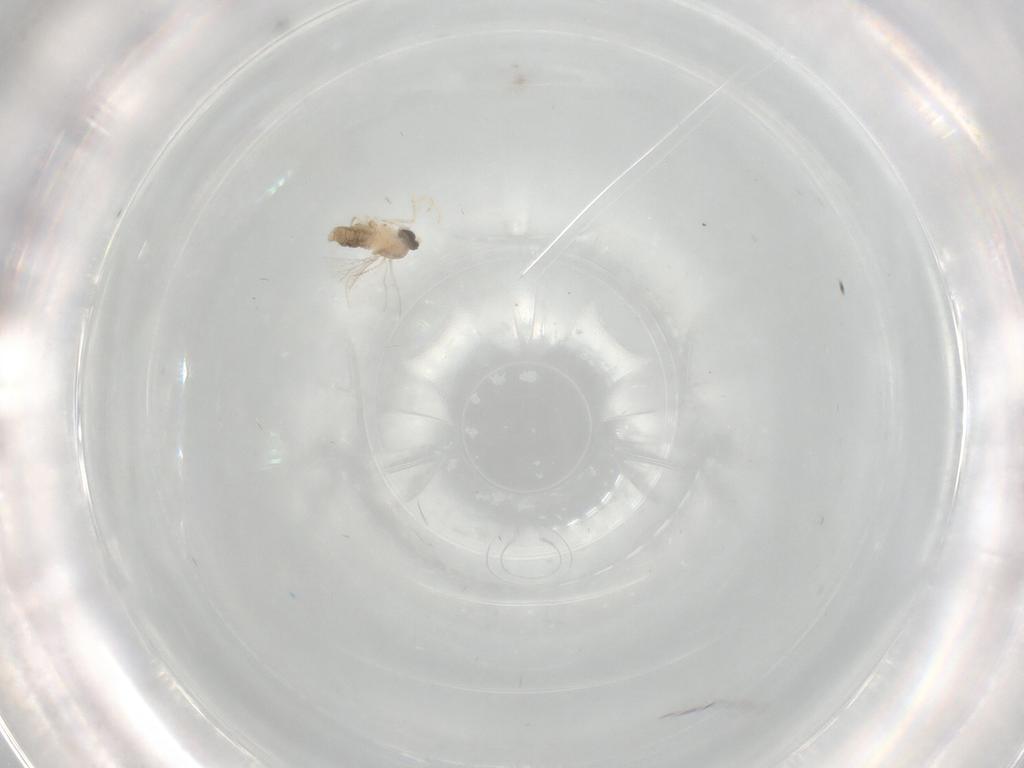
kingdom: Animalia
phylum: Arthropoda
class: Insecta
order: Diptera
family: Cecidomyiidae
